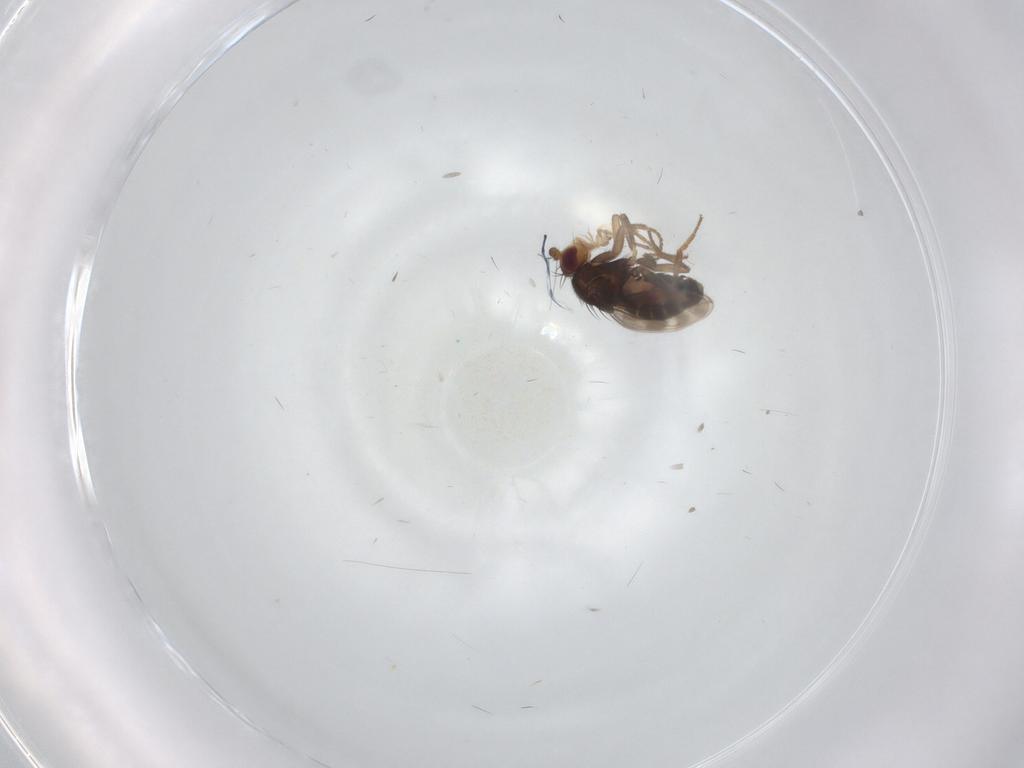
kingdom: Animalia
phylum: Arthropoda
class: Insecta
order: Diptera
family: Sphaeroceridae
